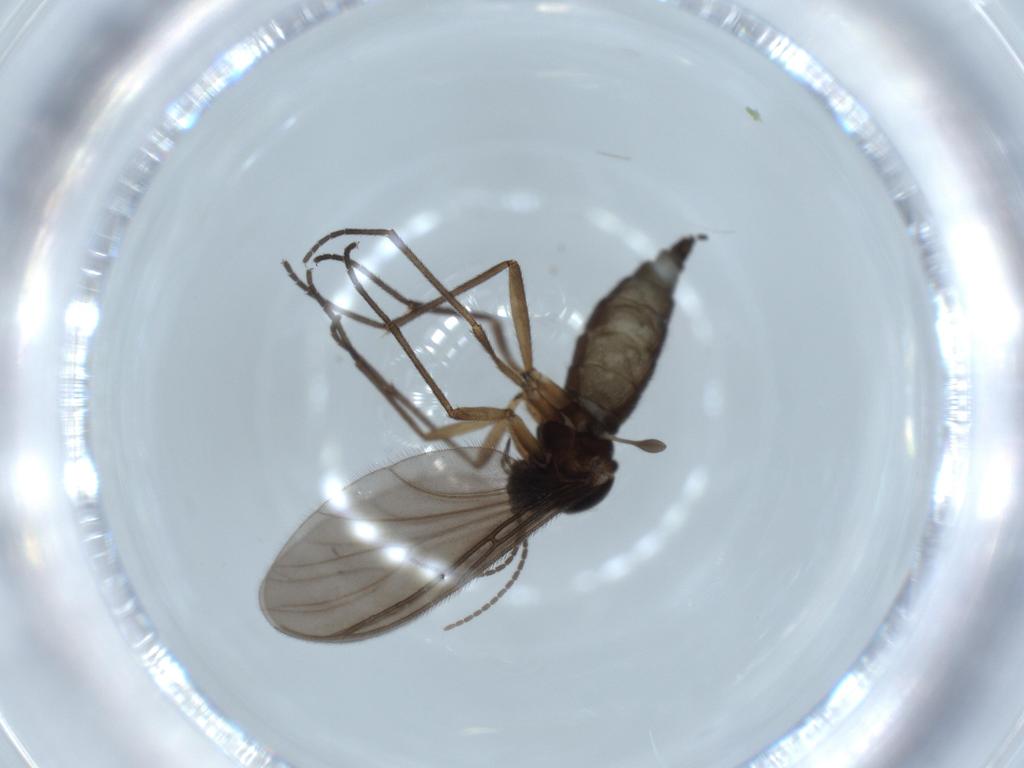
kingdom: Animalia
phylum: Arthropoda
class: Insecta
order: Diptera
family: Sciaridae
